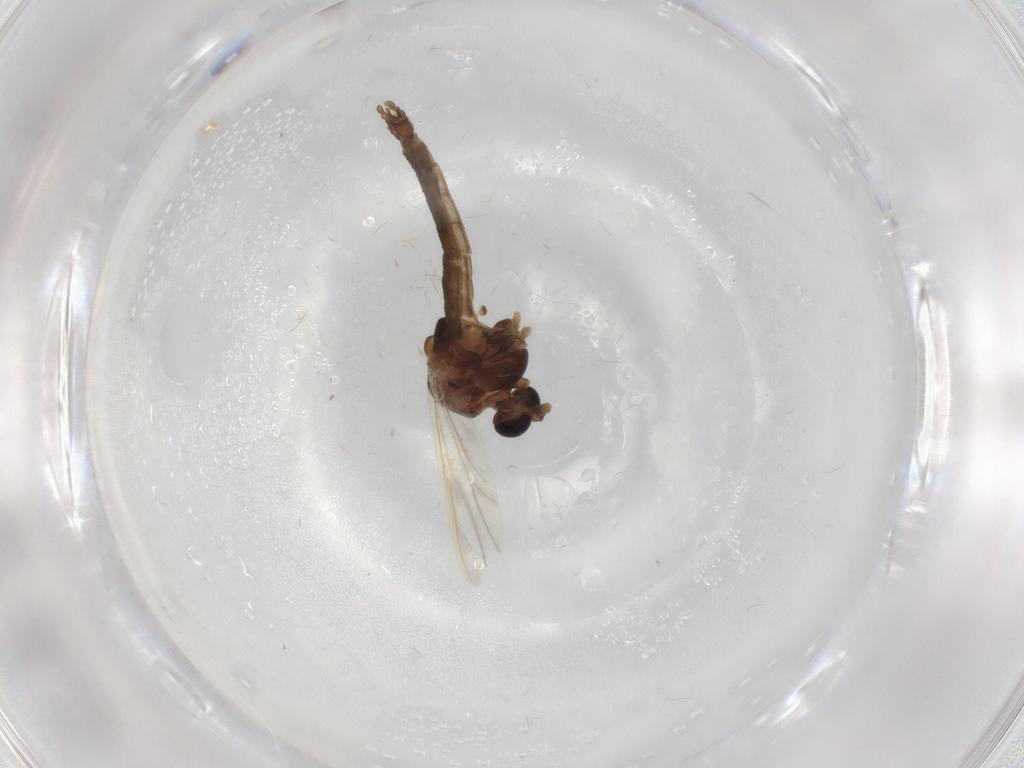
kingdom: Animalia
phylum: Arthropoda
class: Insecta
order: Diptera
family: Chironomidae
